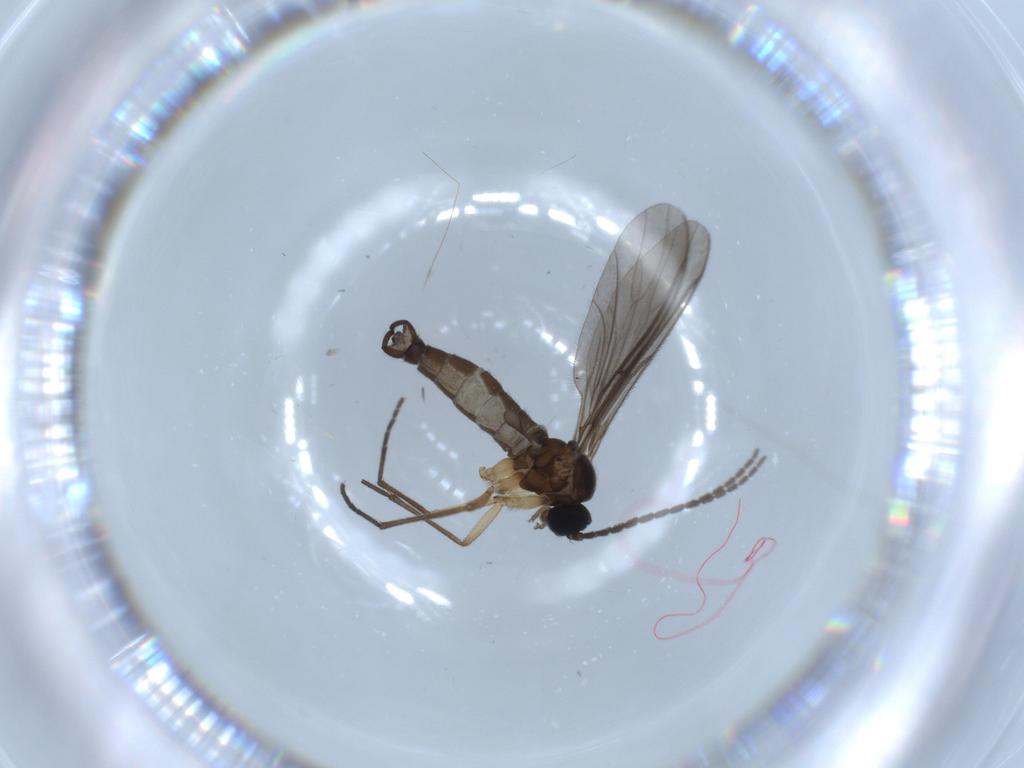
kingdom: Animalia
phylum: Arthropoda
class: Insecta
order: Diptera
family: Sciaridae
